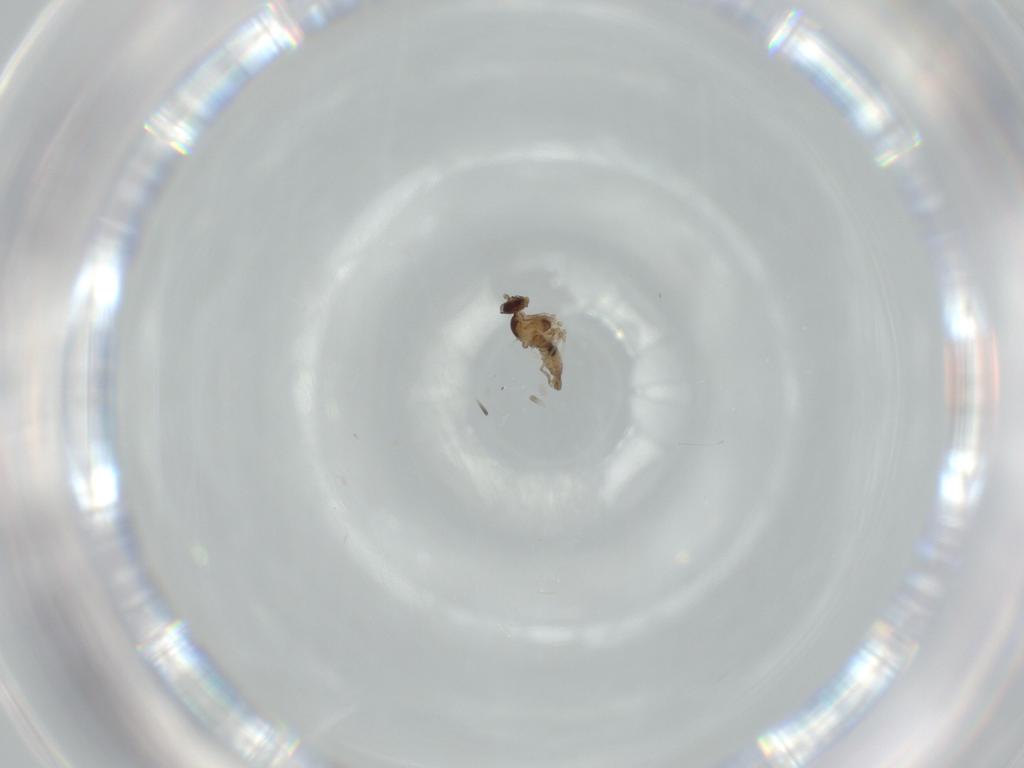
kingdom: Animalia
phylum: Arthropoda
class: Insecta
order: Diptera
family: Cecidomyiidae
